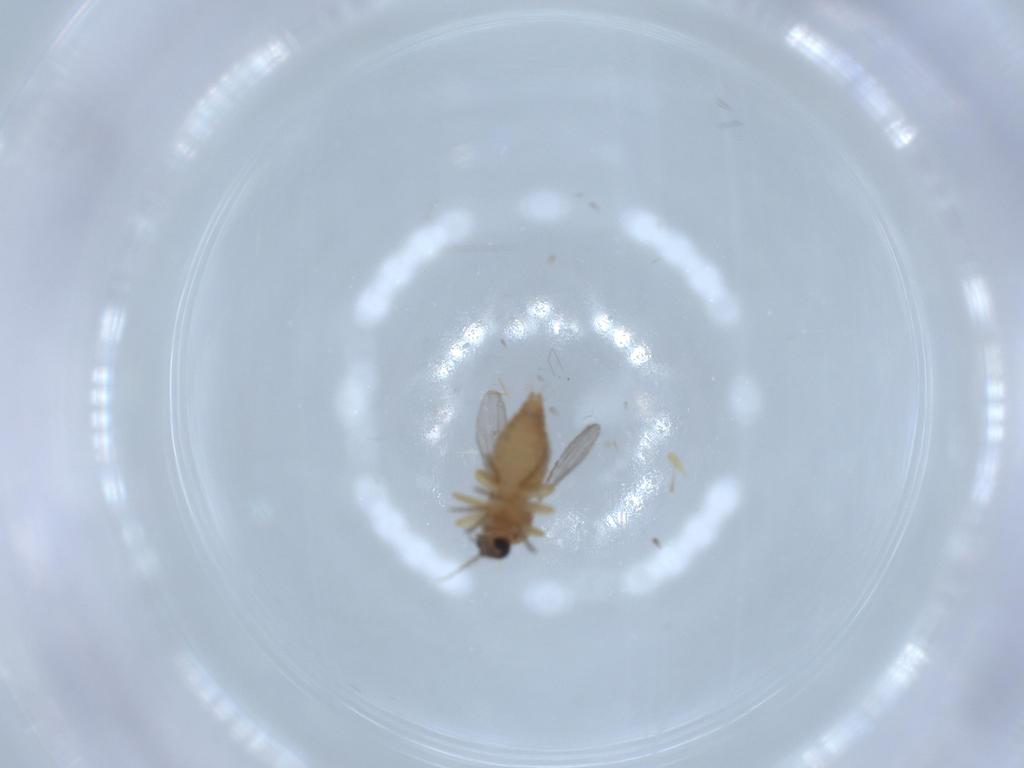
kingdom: Animalia
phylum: Arthropoda
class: Insecta
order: Diptera
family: Ceratopogonidae
